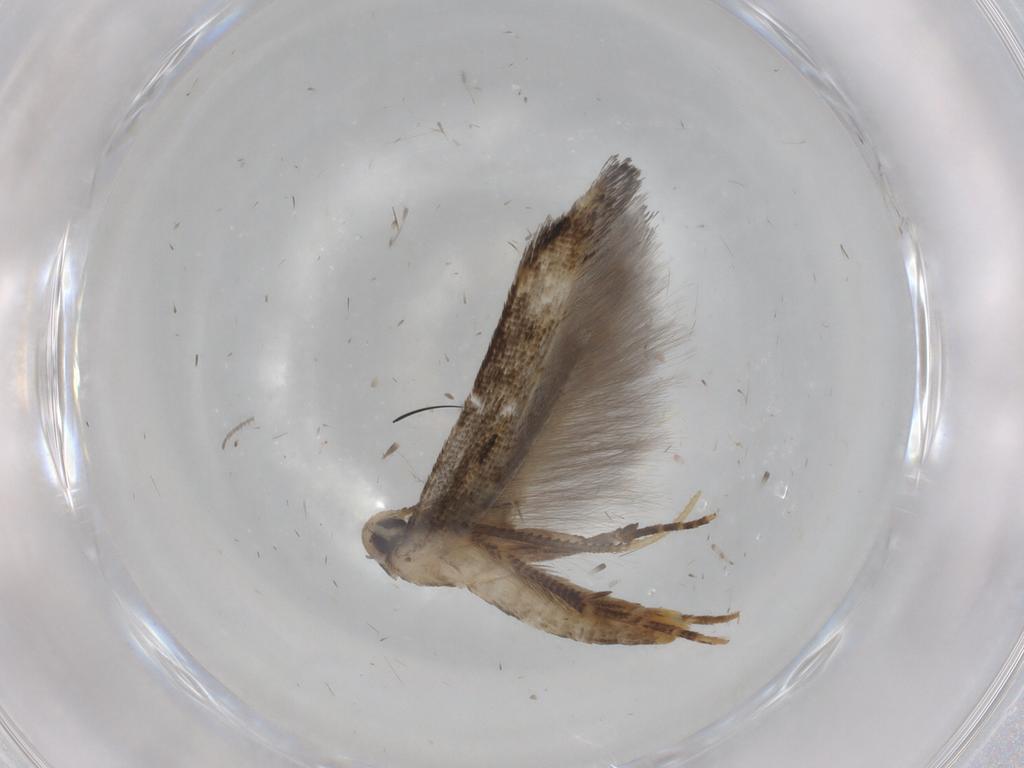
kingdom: Animalia
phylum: Arthropoda
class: Insecta
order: Lepidoptera
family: Cosmopterigidae
